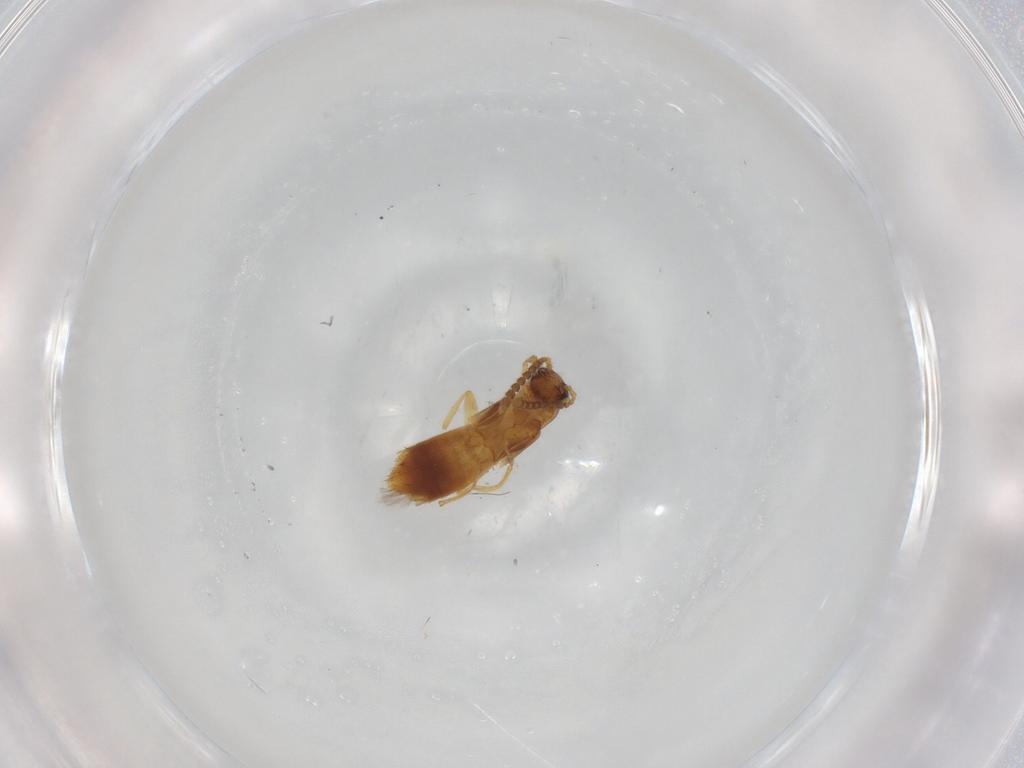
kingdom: Animalia
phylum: Arthropoda
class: Insecta
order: Coleoptera
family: Staphylinidae
